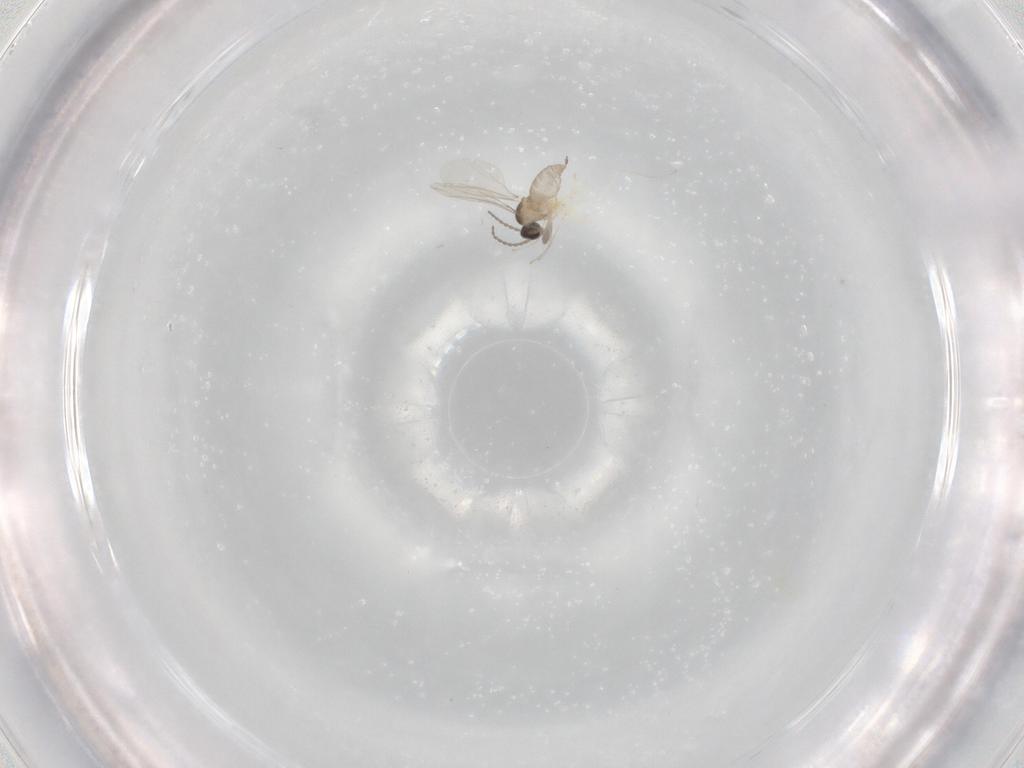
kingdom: Animalia
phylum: Arthropoda
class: Insecta
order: Diptera
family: Cecidomyiidae
